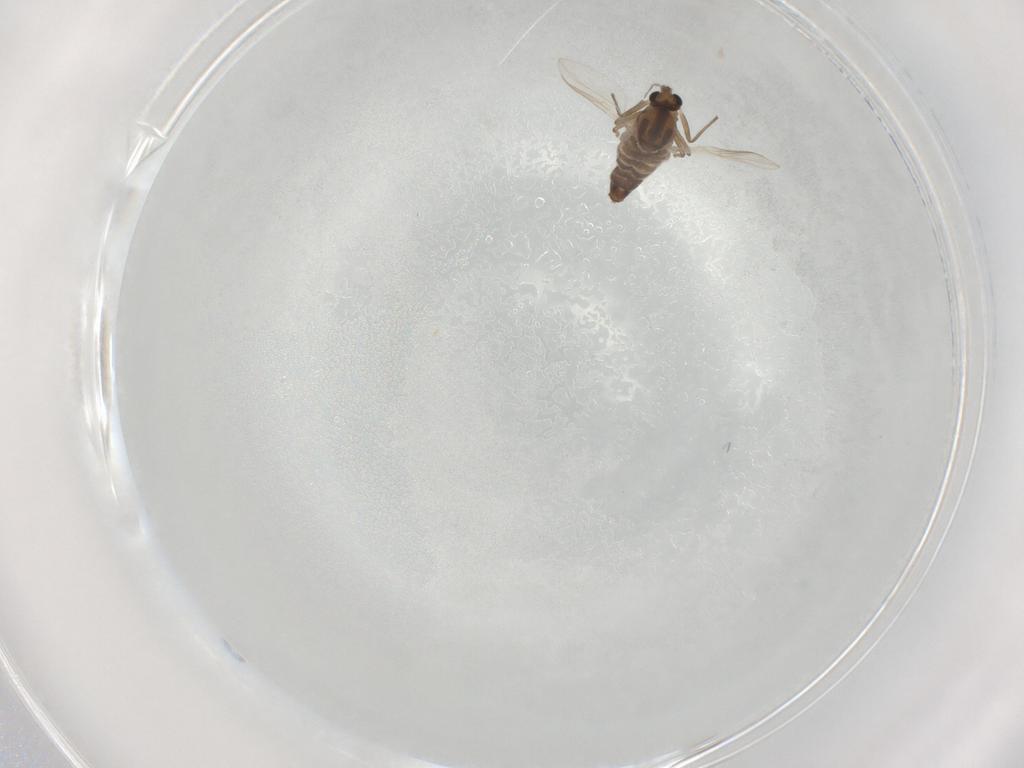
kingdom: Animalia
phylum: Arthropoda
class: Insecta
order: Diptera
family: Chironomidae
